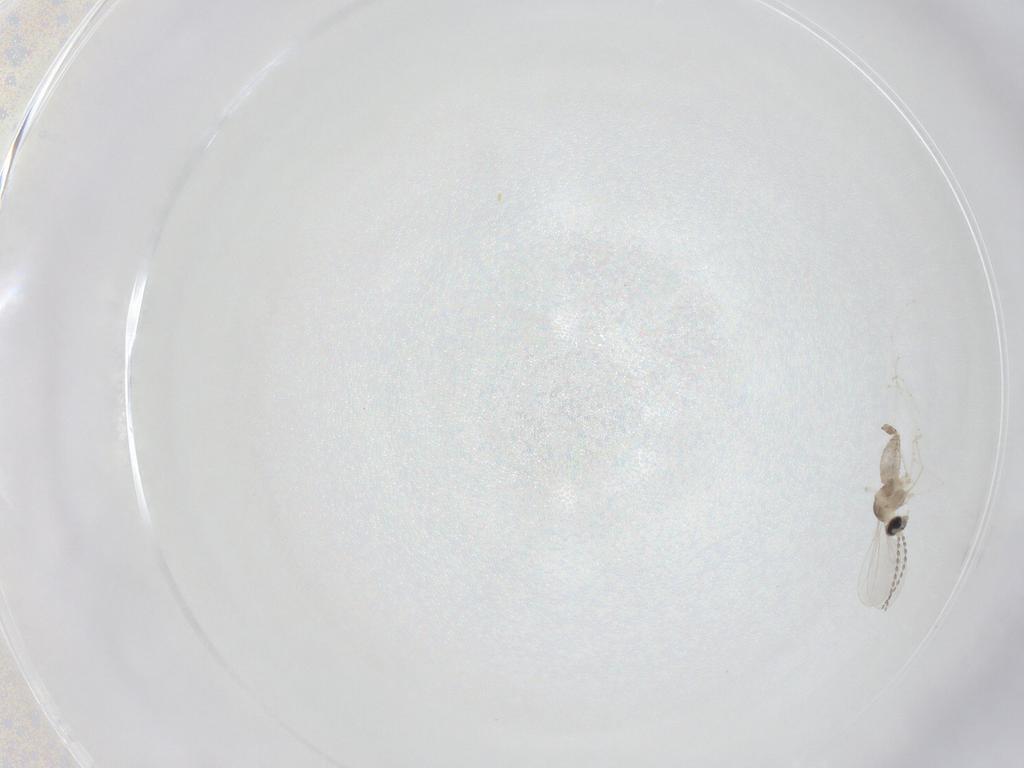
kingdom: Animalia
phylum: Arthropoda
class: Insecta
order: Diptera
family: Cecidomyiidae
